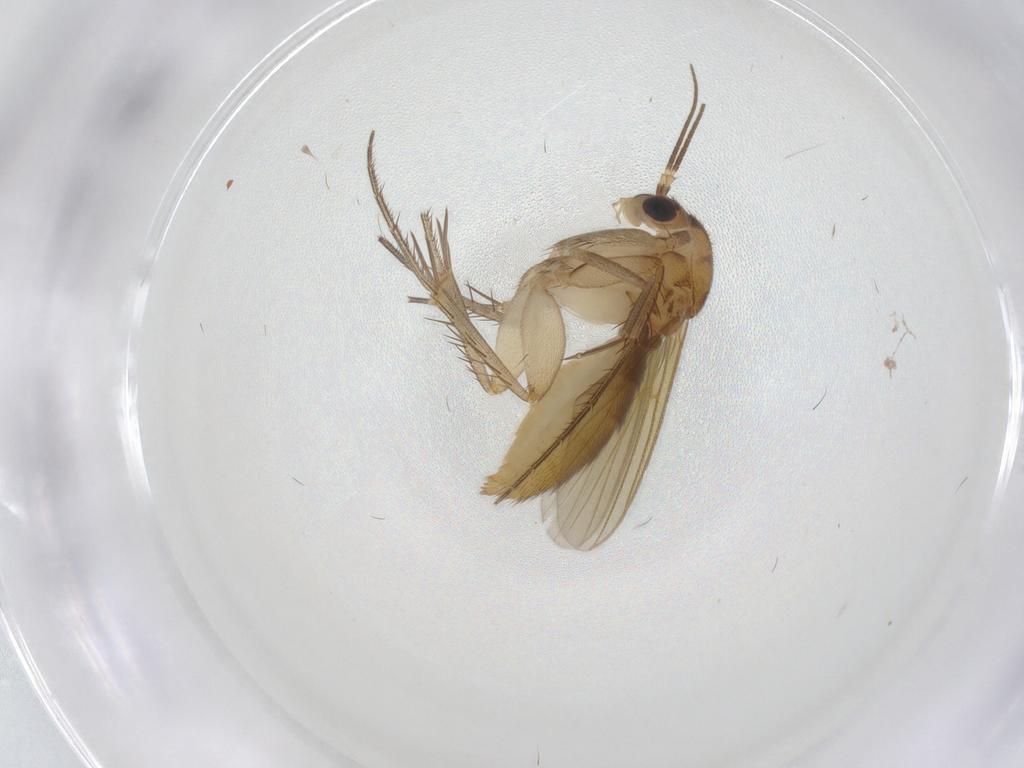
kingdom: Animalia
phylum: Arthropoda
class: Insecta
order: Diptera
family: Mycetophilidae
